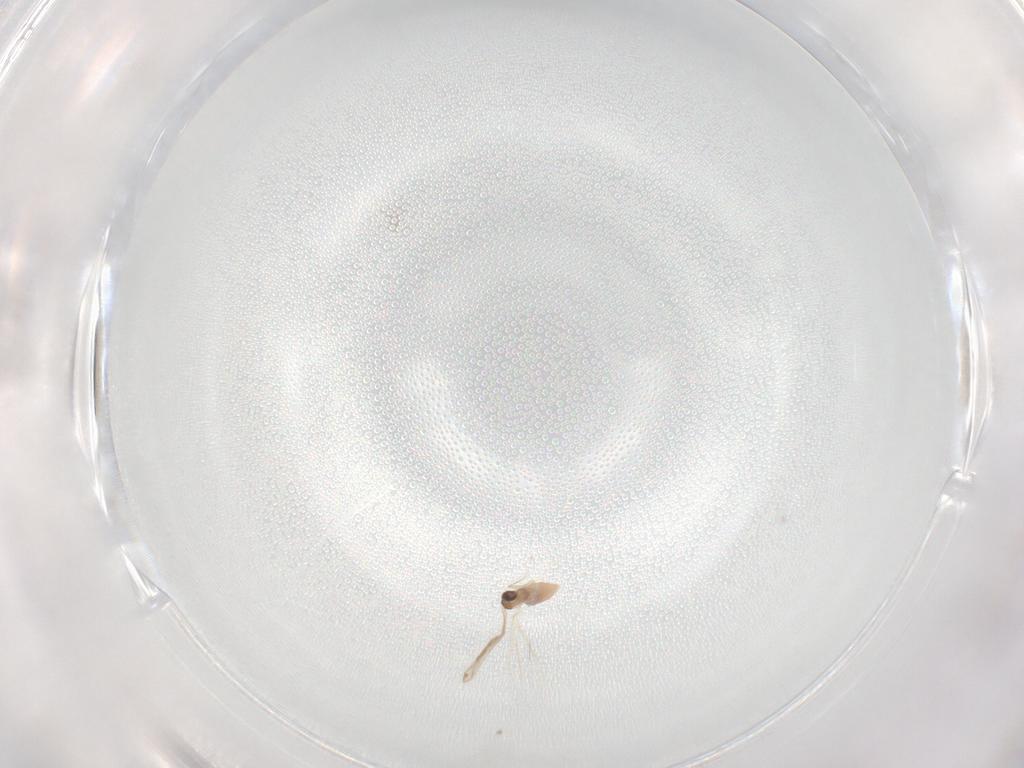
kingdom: Animalia
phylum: Arthropoda
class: Insecta
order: Diptera
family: Cecidomyiidae
